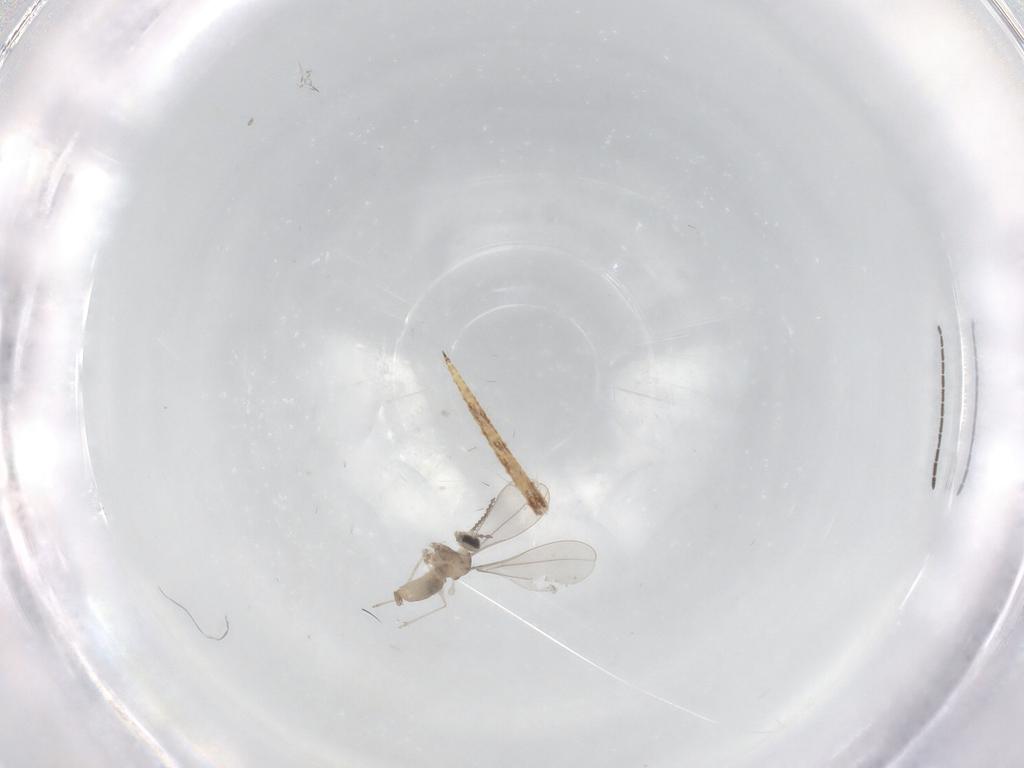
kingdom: Animalia
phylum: Arthropoda
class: Insecta
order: Diptera
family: Sciaridae
